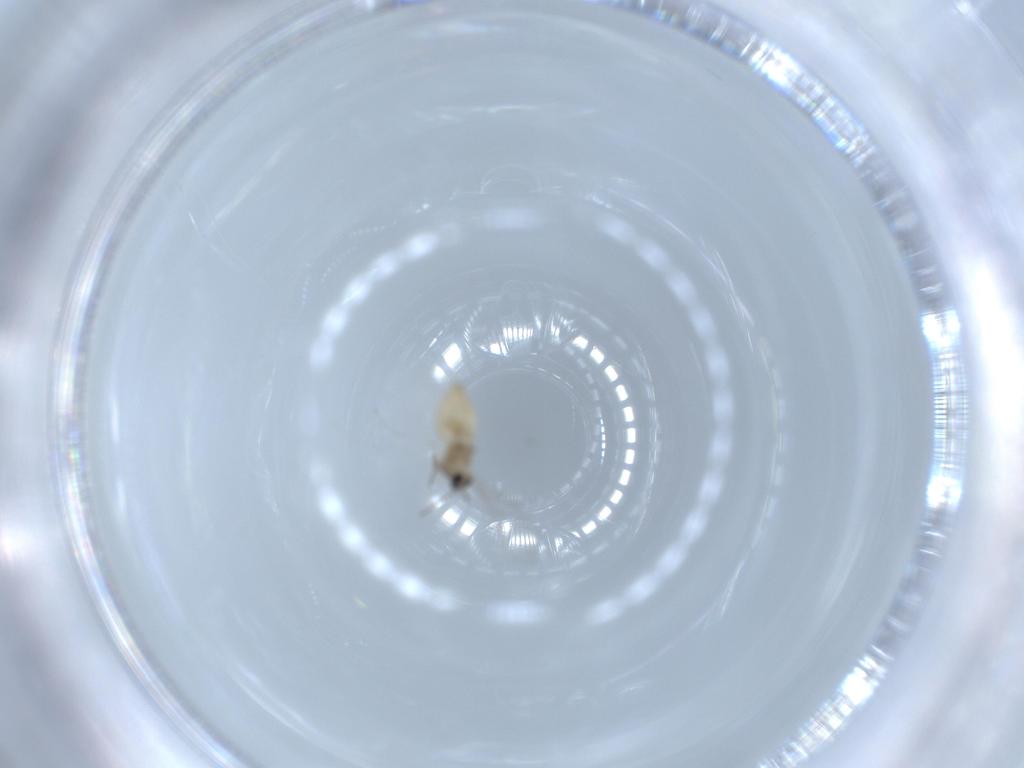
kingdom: Animalia
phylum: Arthropoda
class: Insecta
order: Diptera
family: Cecidomyiidae
